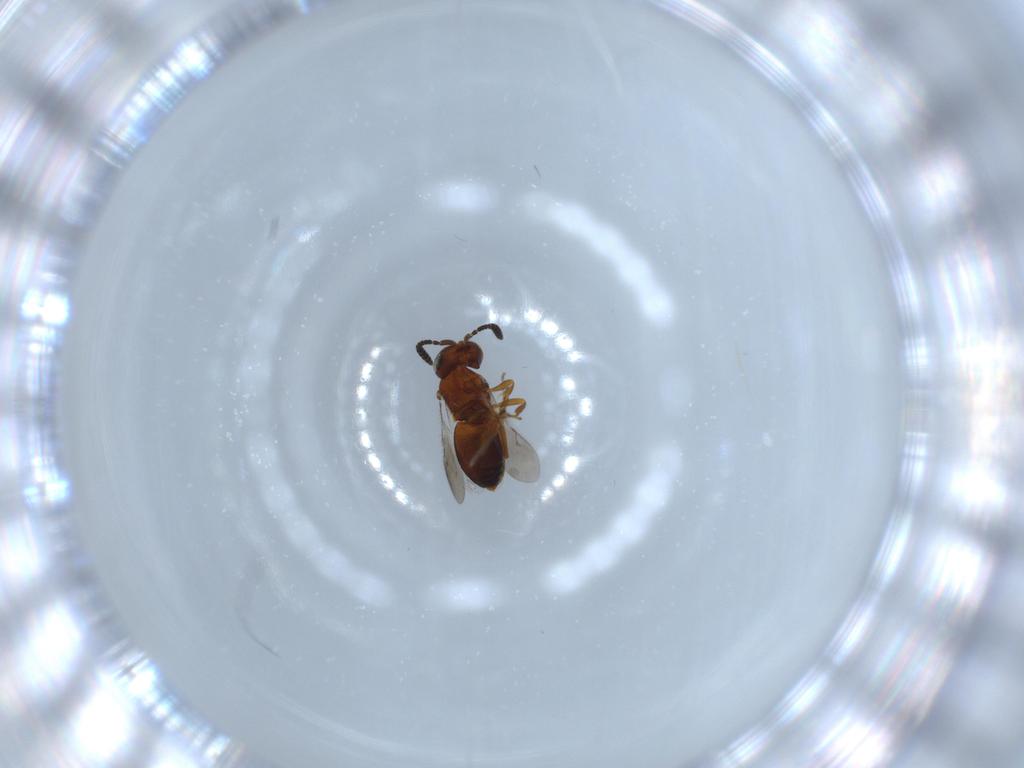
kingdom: Animalia
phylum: Arthropoda
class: Insecta
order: Hymenoptera
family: Scelionidae
